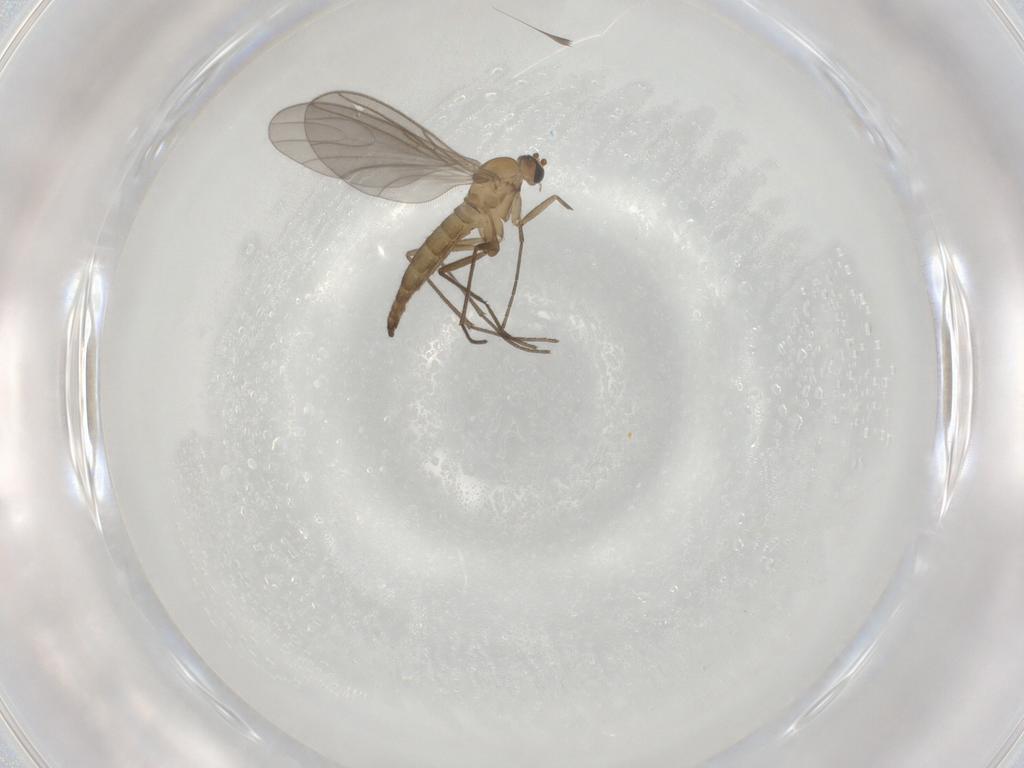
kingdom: Animalia
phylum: Arthropoda
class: Insecta
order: Diptera
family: Sciaridae
